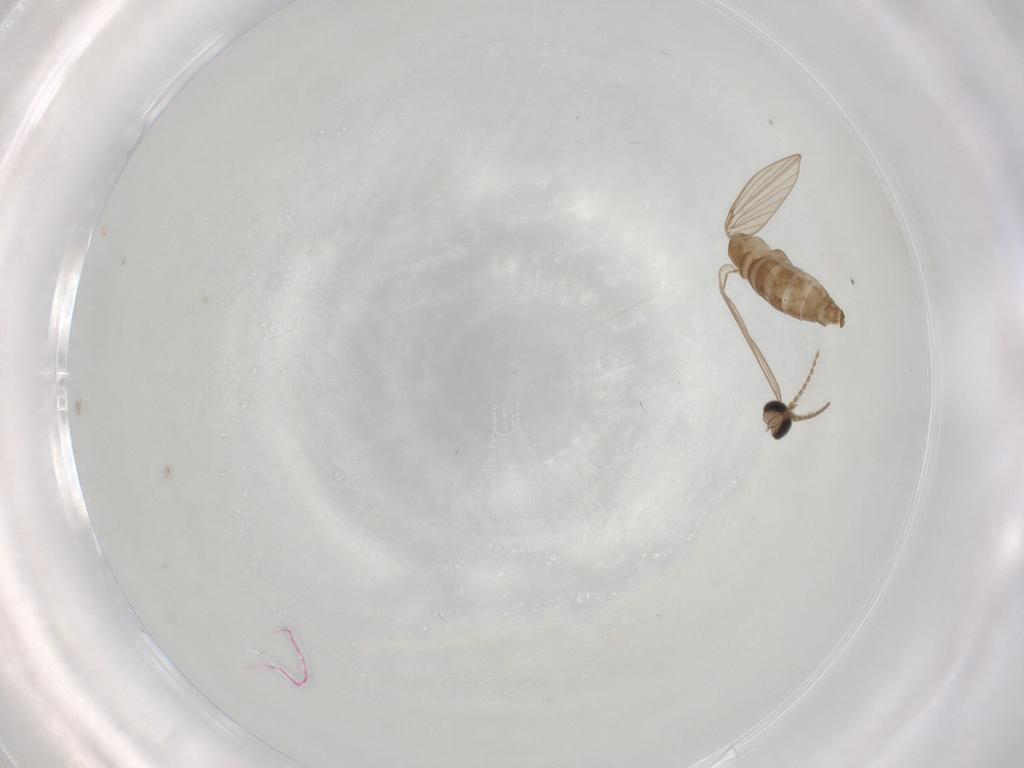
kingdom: Animalia
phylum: Arthropoda
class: Insecta
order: Diptera
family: Psychodidae
